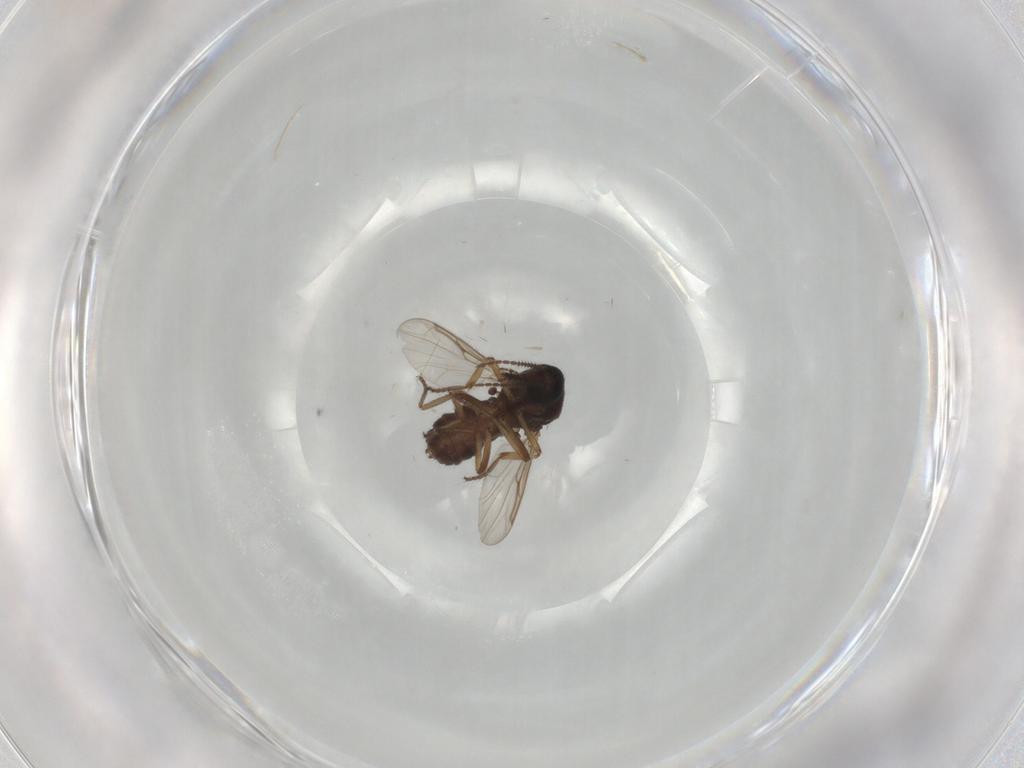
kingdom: Animalia
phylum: Arthropoda
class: Insecta
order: Diptera
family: Ceratopogonidae
